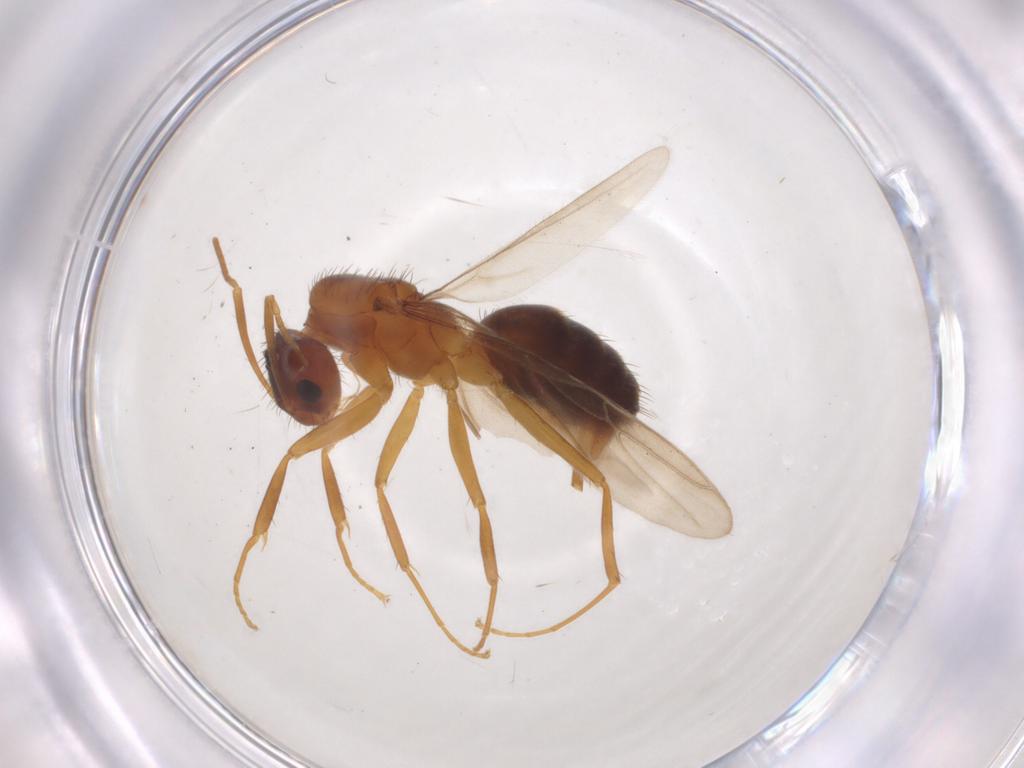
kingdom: Animalia
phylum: Arthropoda
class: Insecta
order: Hymenoptera
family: Formicidae
